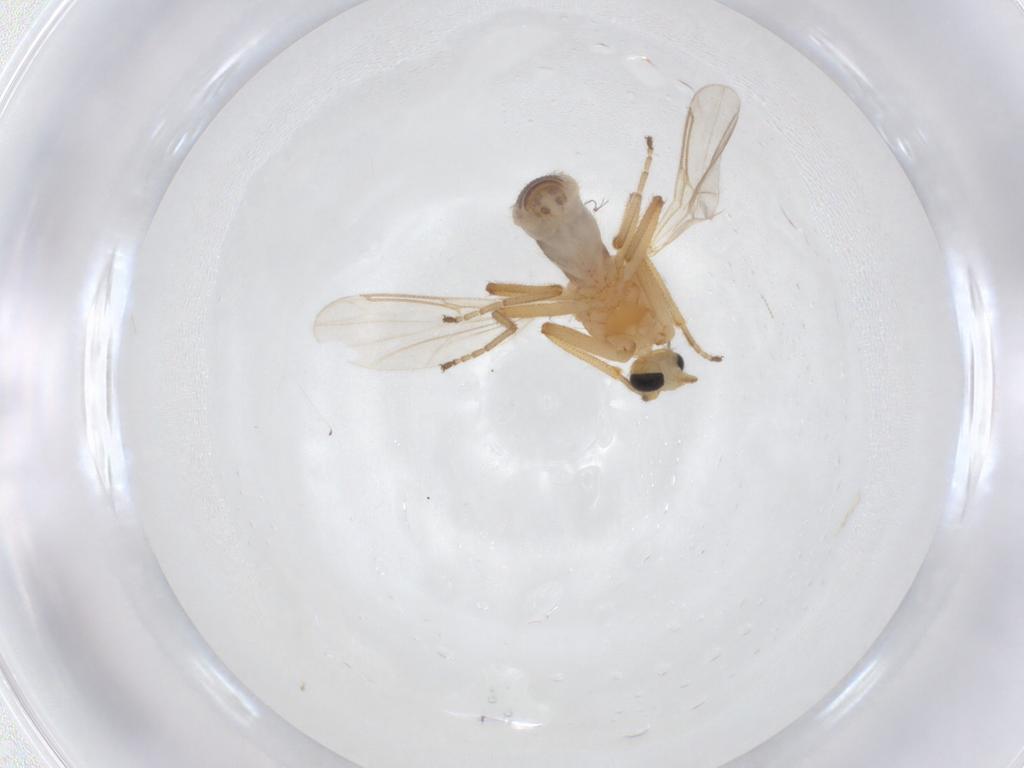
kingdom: Animalia
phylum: Arthropoda
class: Insecta
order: Diptera
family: Ceratopogonidae
